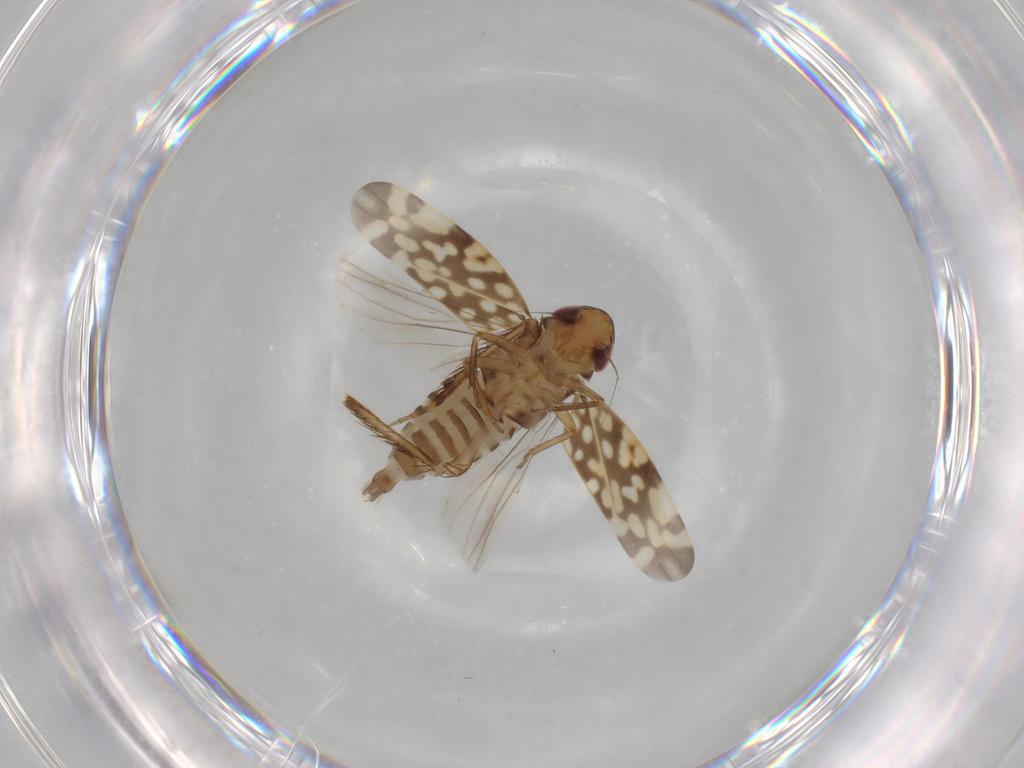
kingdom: Animalia
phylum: Arthropoda
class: Insecta
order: Hemiptera
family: Cicadellidae
